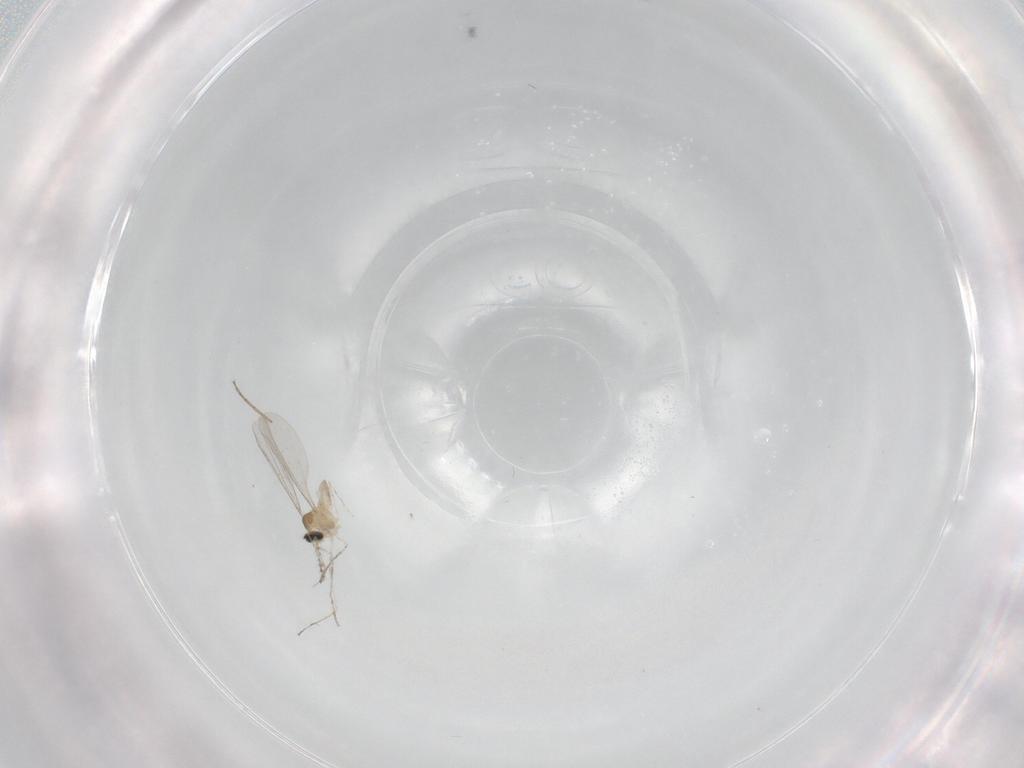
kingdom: Animalia
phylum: Arthropoda
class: Insecta
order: Diptera
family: Chironomidae
